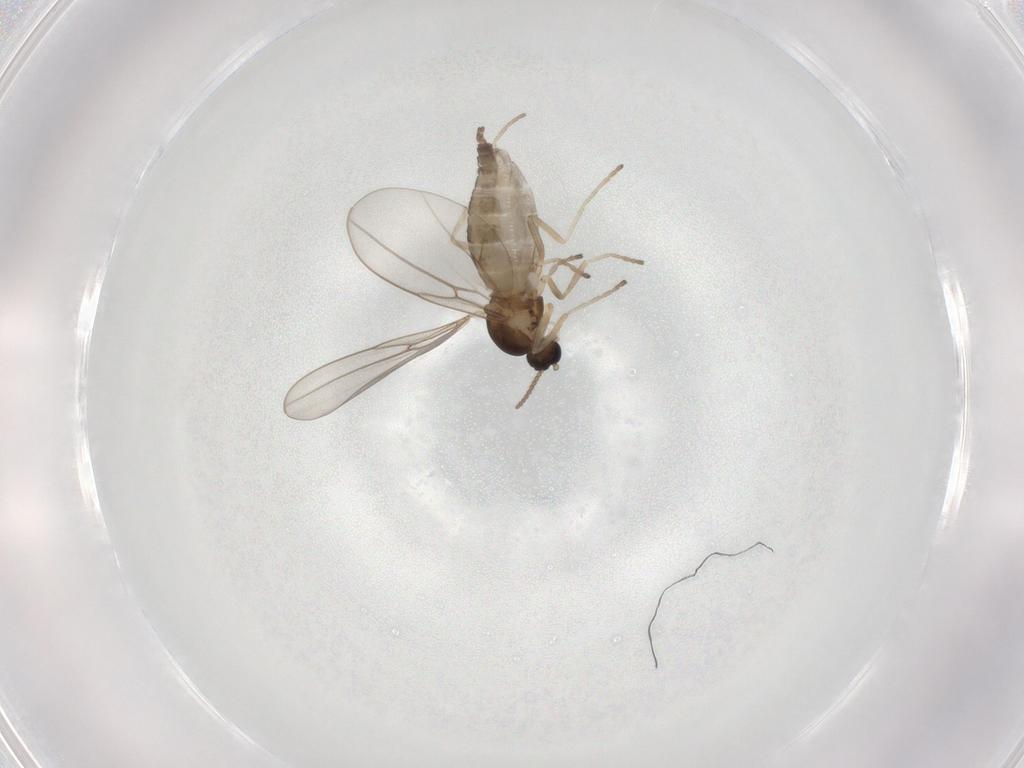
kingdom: Animalia
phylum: Arthropoda
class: Insecta
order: Diptera
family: Cecidomyiidae
